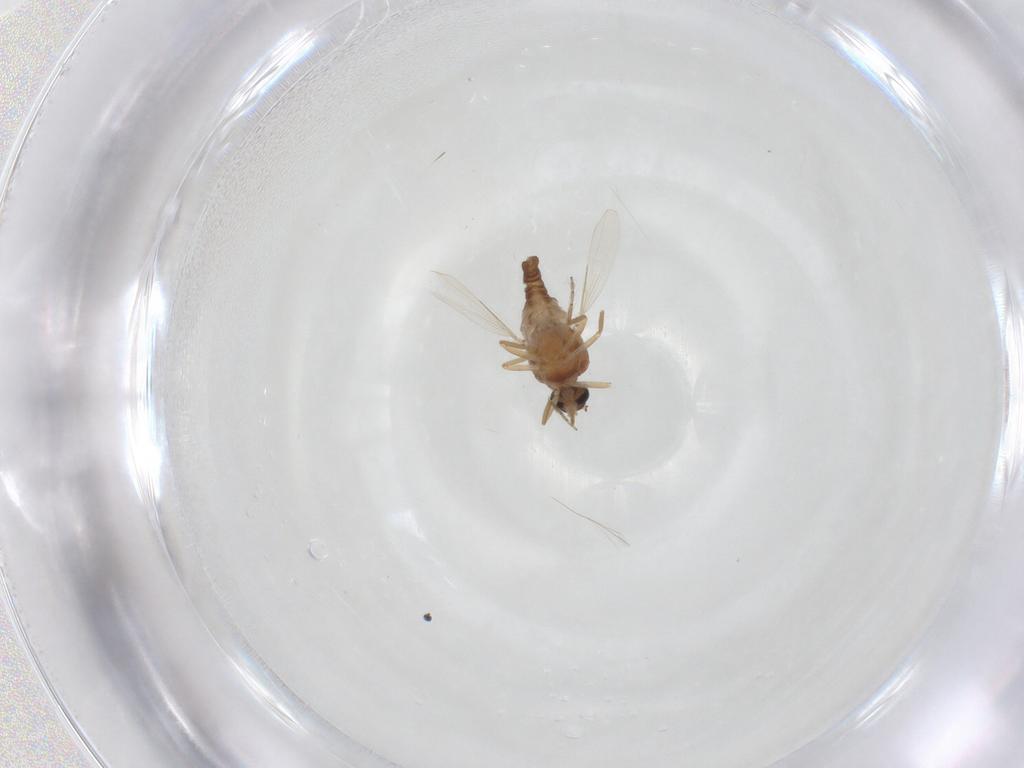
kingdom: Animalia
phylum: Arthropoda
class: Insecta
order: Diptera
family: Ceratopogonidae
